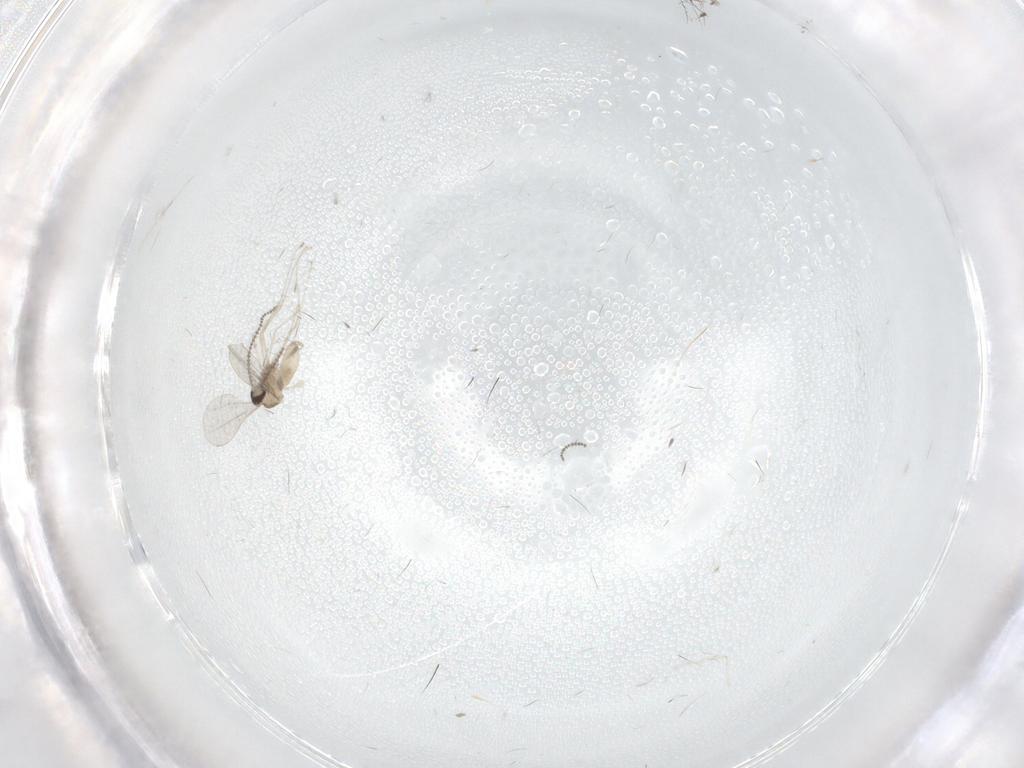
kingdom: Animalia
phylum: Arthropoda
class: Insecta
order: Diptera
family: Cecidomyiidae
